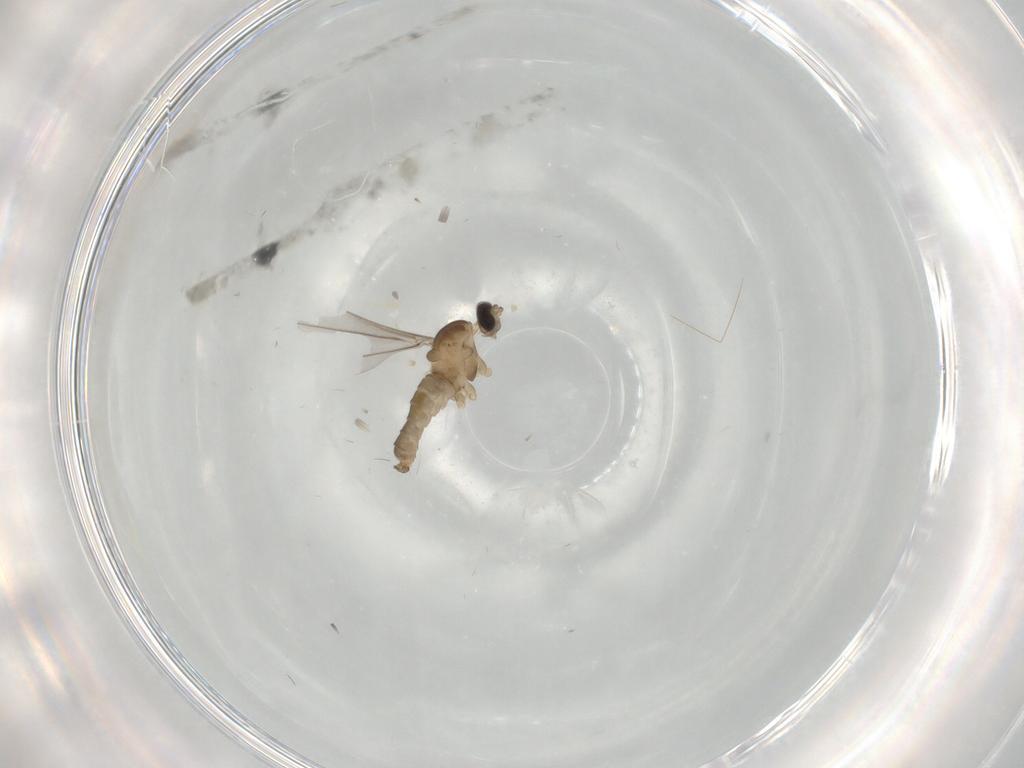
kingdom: Animalia
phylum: Arthropoda
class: Insecta
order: Diptera
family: Cecidomyiidae
